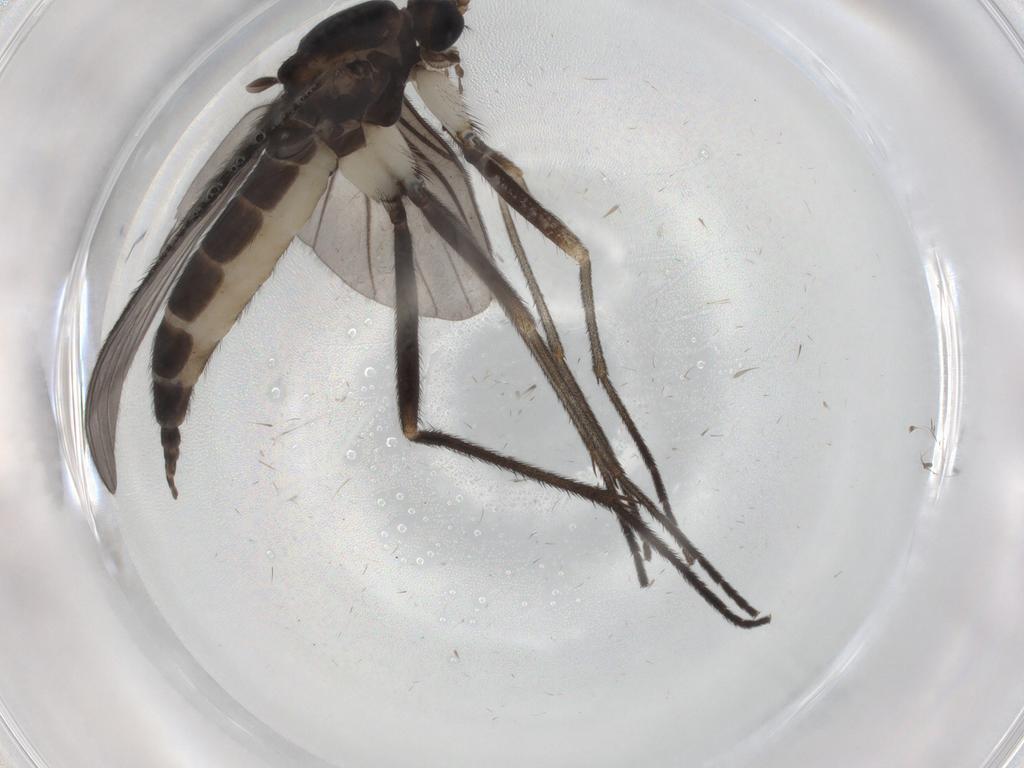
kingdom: Animalia
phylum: Arthropoda
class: Insecta
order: Diptera
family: Sciaridae
